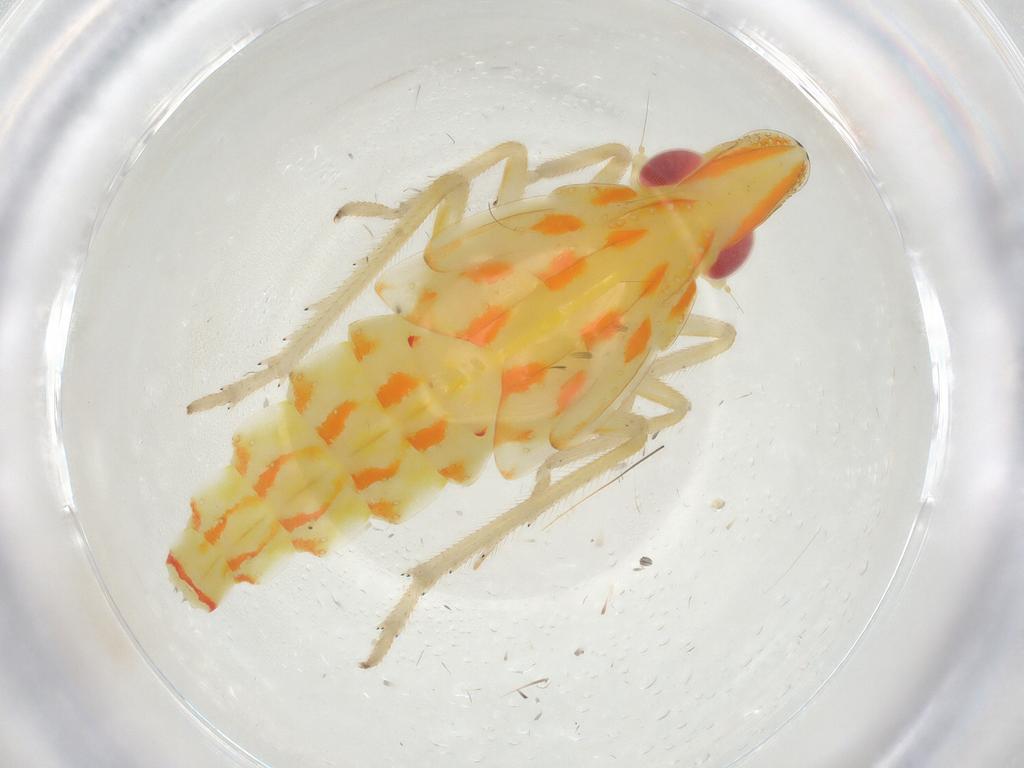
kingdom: Animalia
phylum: Arthropoda
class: Insecta
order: Hemiptera
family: Tropiduchidae
